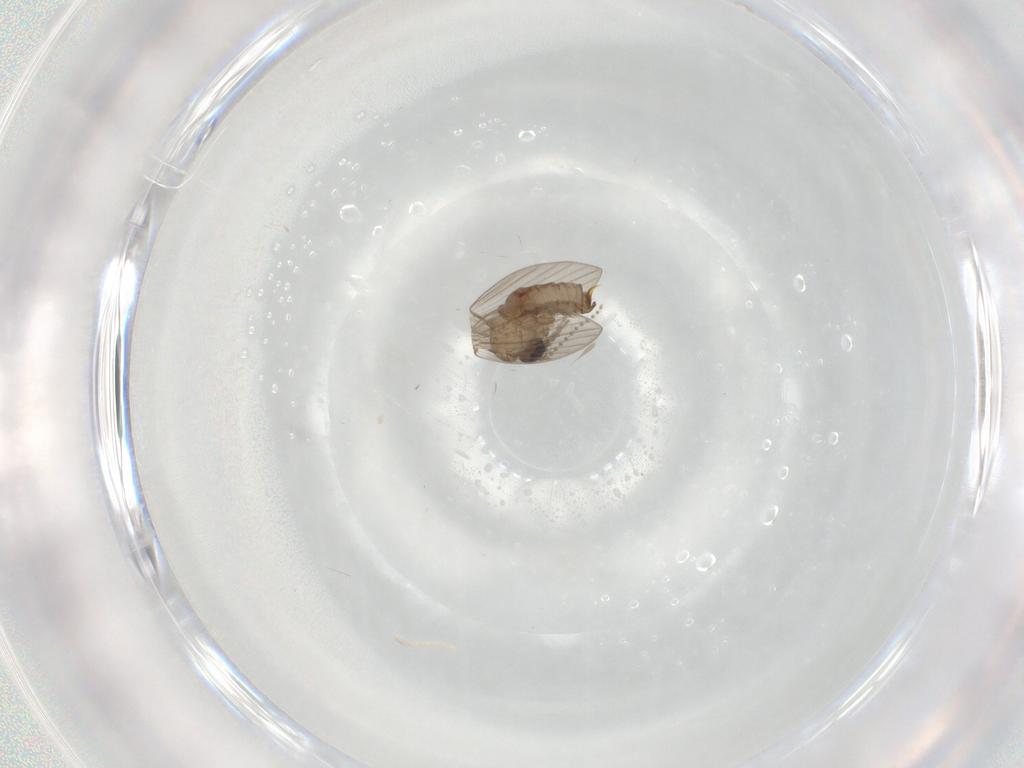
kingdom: Animalia
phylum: Arthropoda
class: Insecta
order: Diptera
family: Psychodidae
